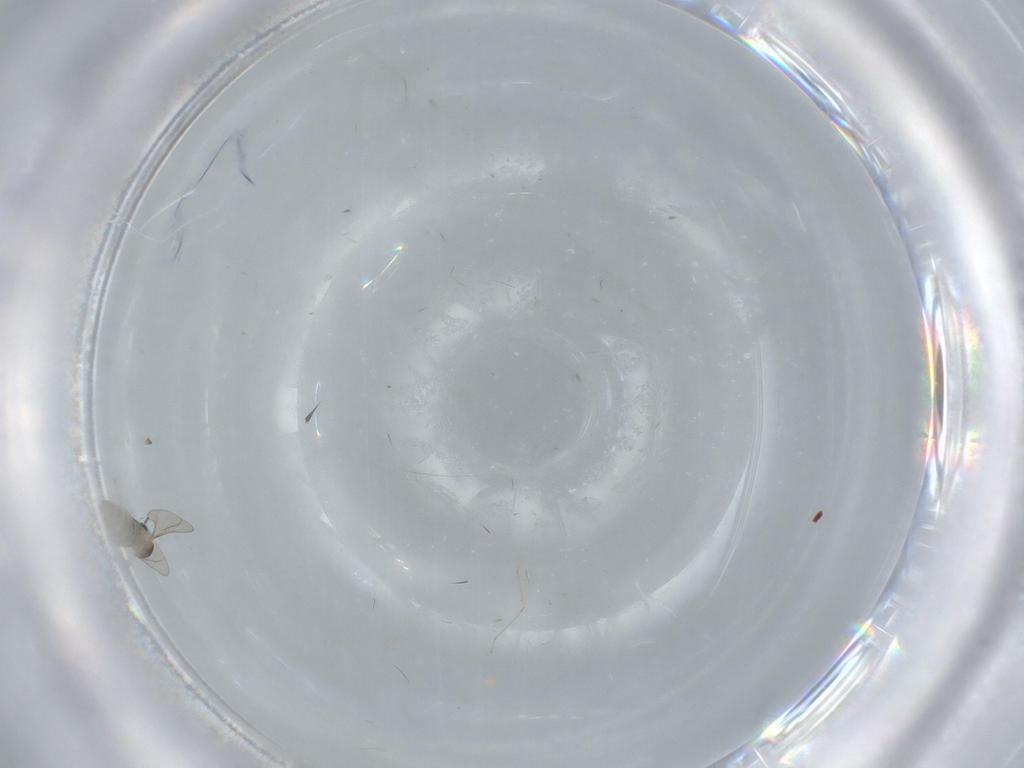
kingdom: Animalia
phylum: Arthropoda
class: Insecta
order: Diptera
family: Cecidomyiidae
